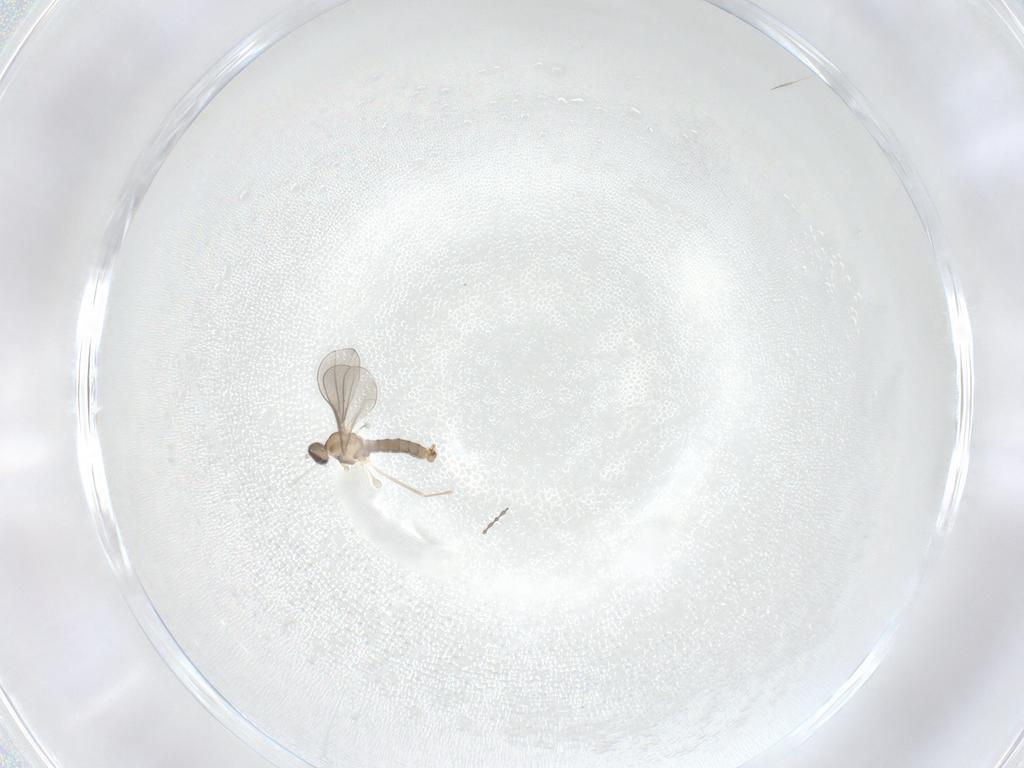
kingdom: Animalia
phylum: Arthropoda
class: Insecta
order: Diptera
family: Cecidomyiidae
